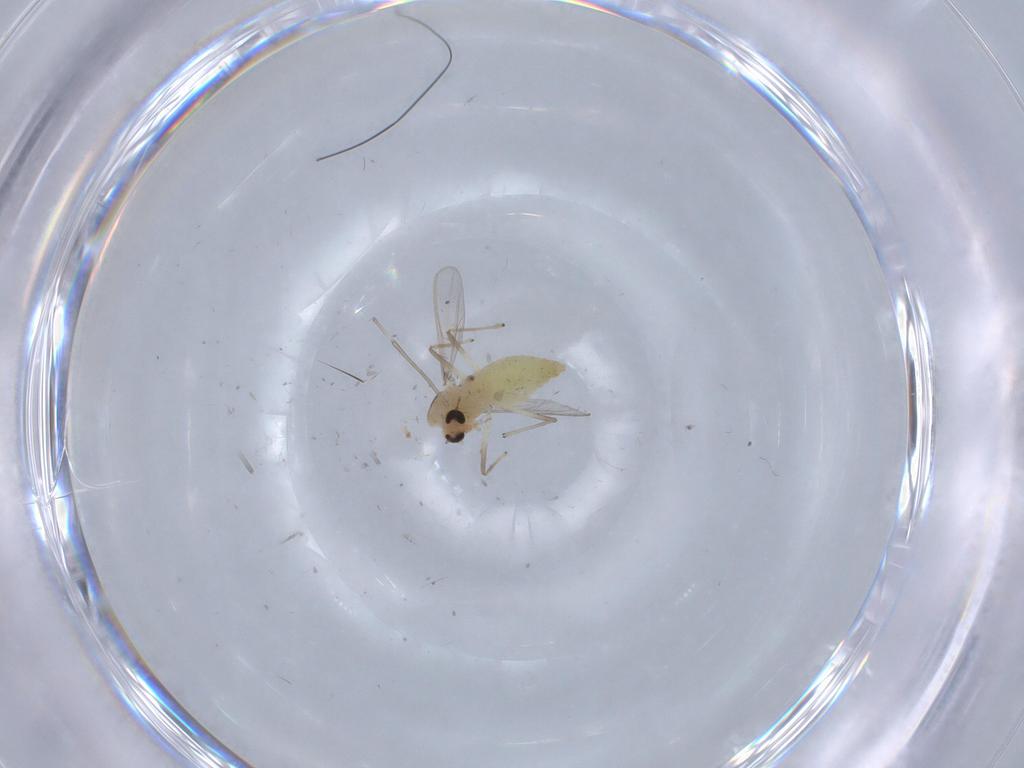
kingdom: Animalia
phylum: Arthropoda
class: Insecta
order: Diptera
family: Chironomidae
